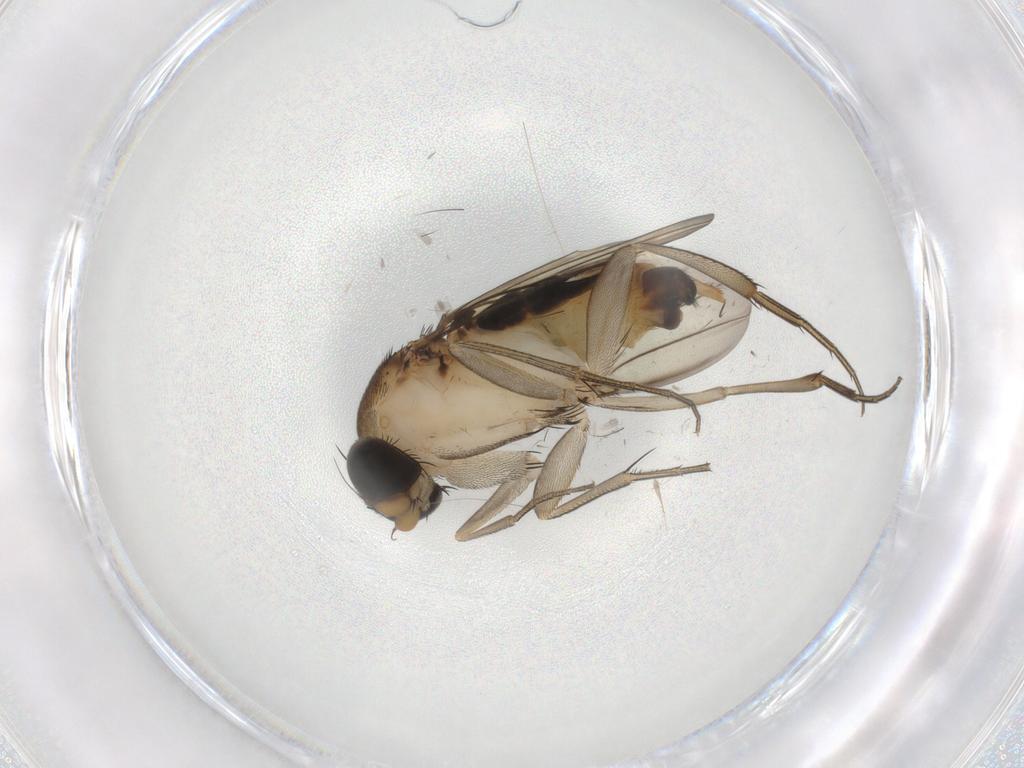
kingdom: Animalia
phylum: Arthropoda
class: Insecta
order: Diptera
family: Phoridae
